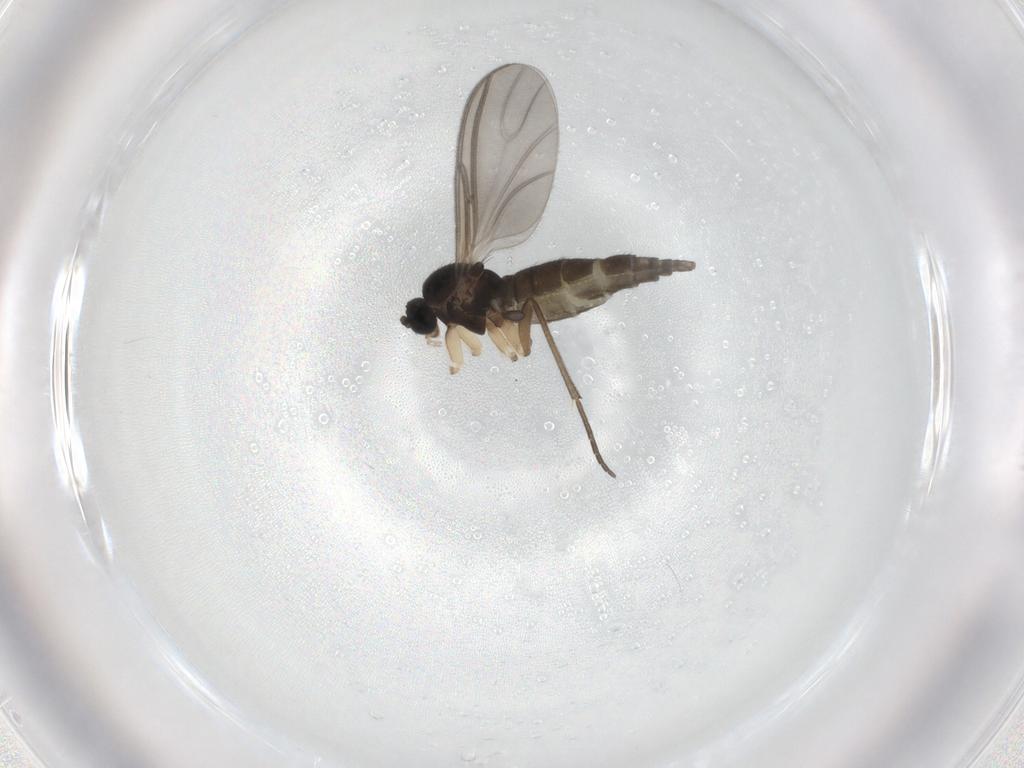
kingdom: Animalia
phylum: Arthropoda
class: Insecta
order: Diptera
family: Sciaridae
